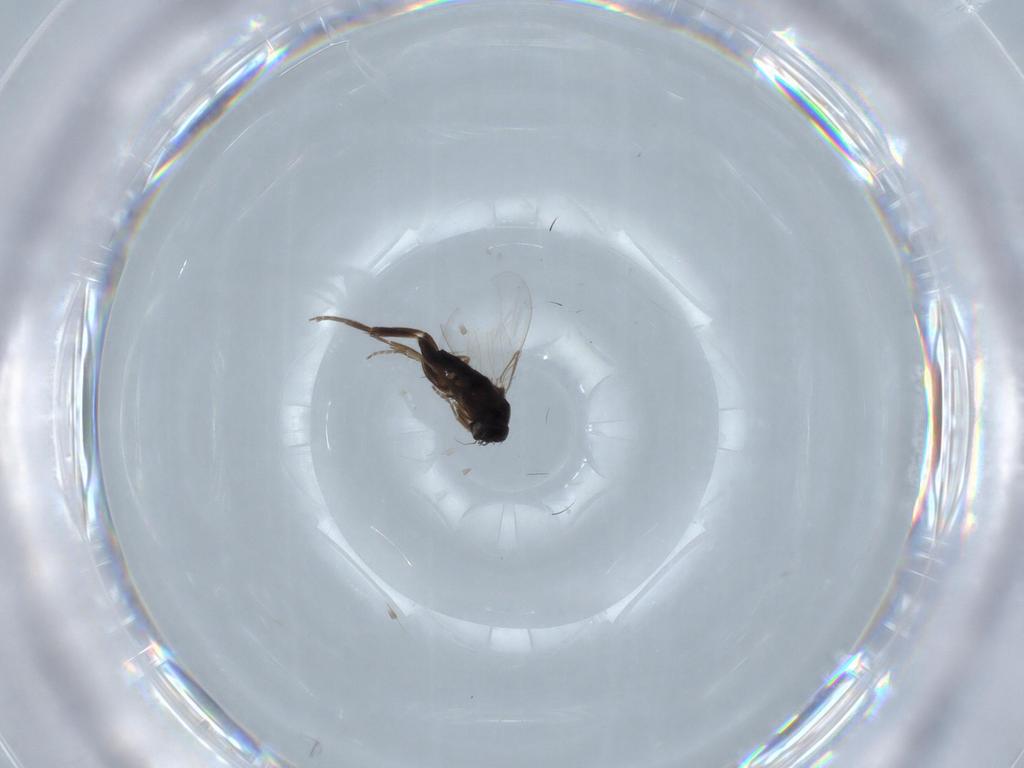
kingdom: Animalia
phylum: Arthropoda
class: Insecta
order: Diptera
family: Phoridae
